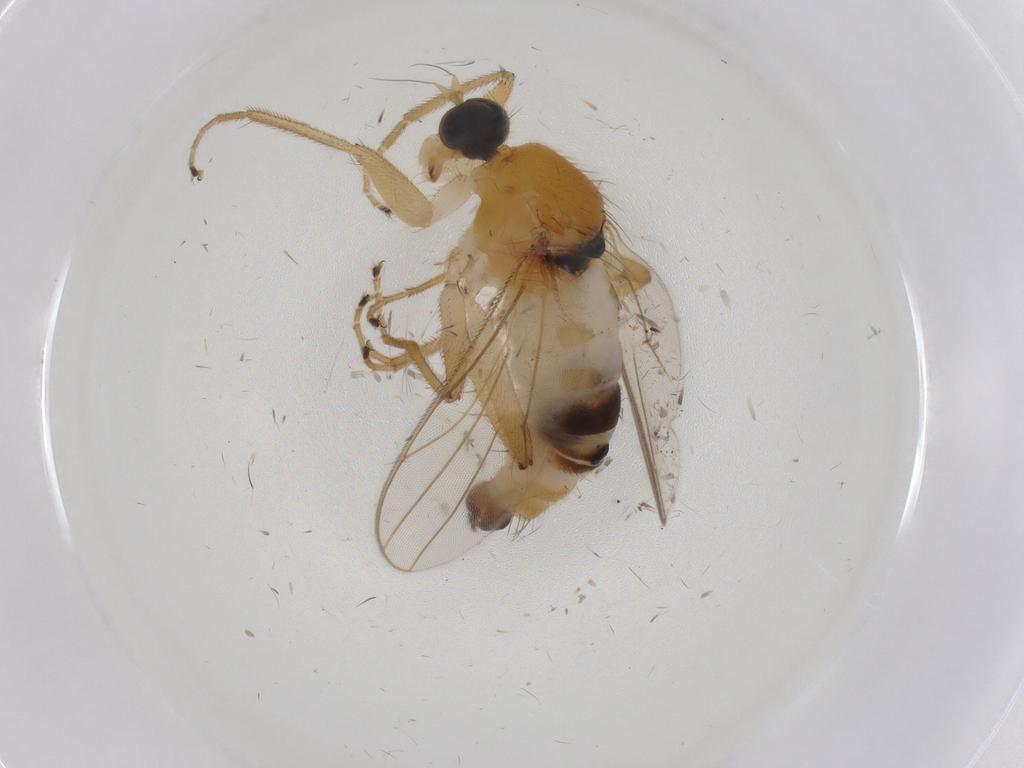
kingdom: Animalia
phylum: Arthropoda
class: Insecta
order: Diptera
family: Hybotidae
